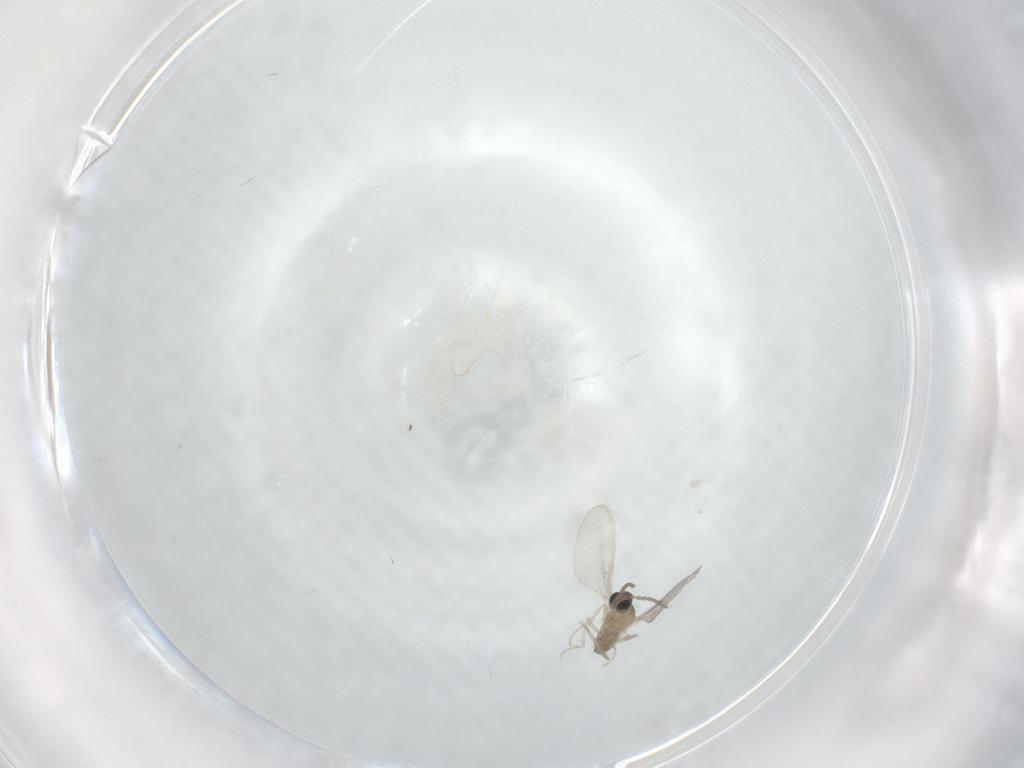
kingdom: Animalia
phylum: Arthropoda
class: Insecta
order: Diptera
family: Cecidomyiidae
